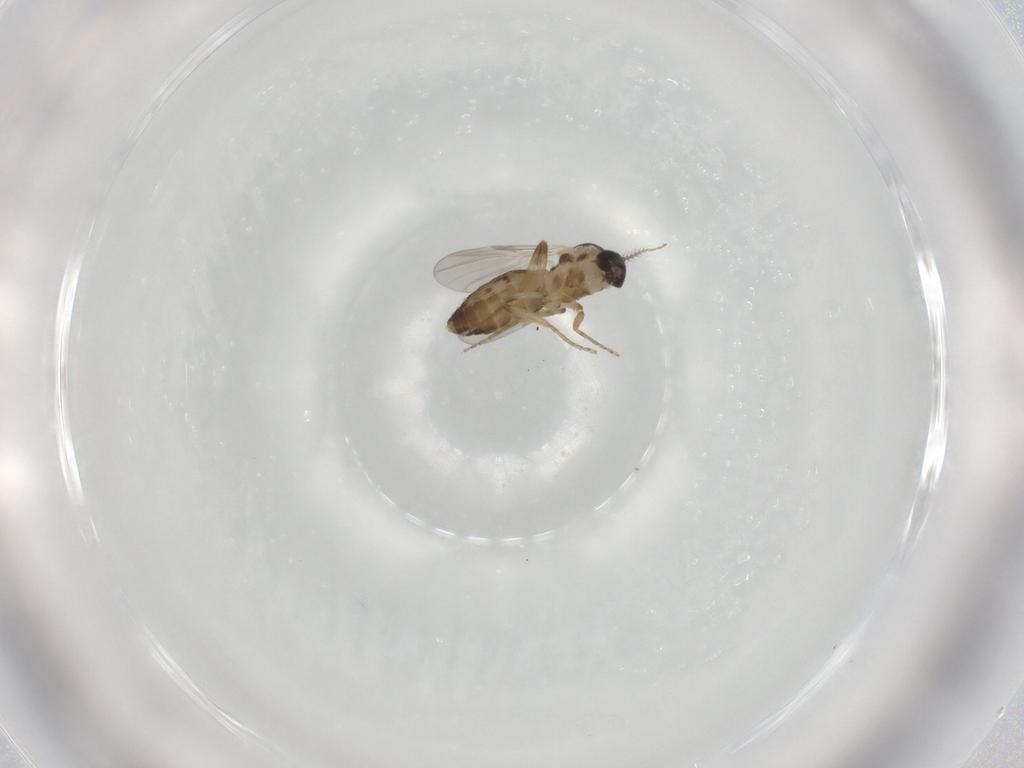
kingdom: Animalia
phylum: Arthropoda
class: Insecta
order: Diptera
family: Ceratopogonidae
